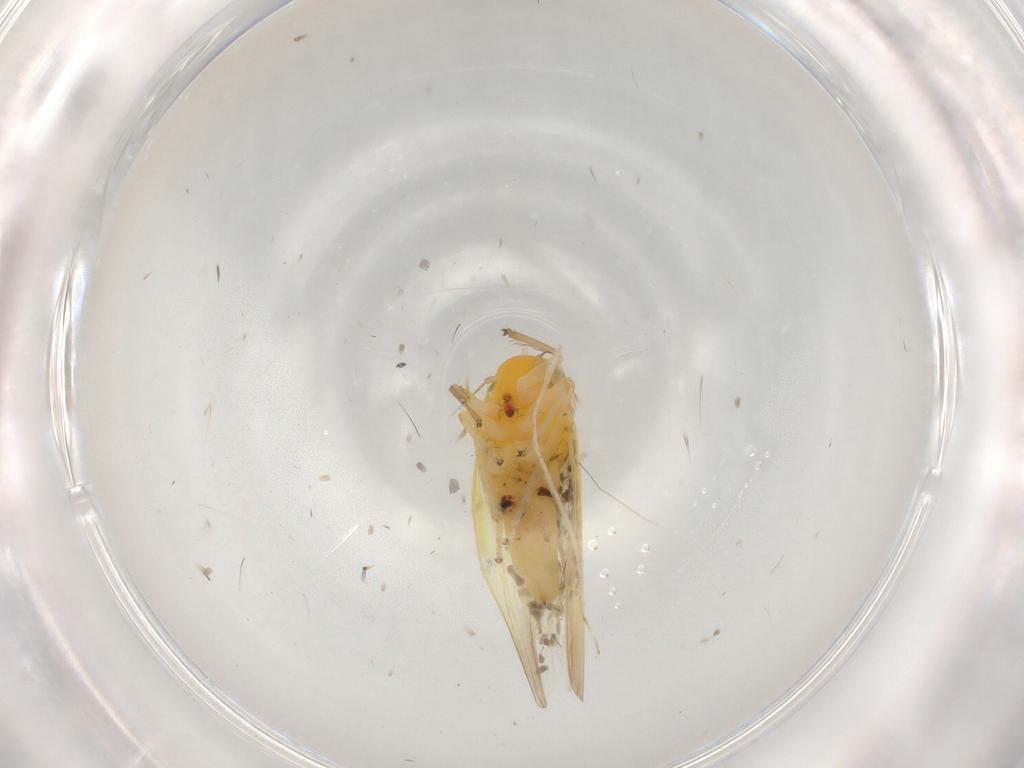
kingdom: Animalia
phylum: Arthropoda
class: Insecta
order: Hemiptera
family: Cicadellidae
